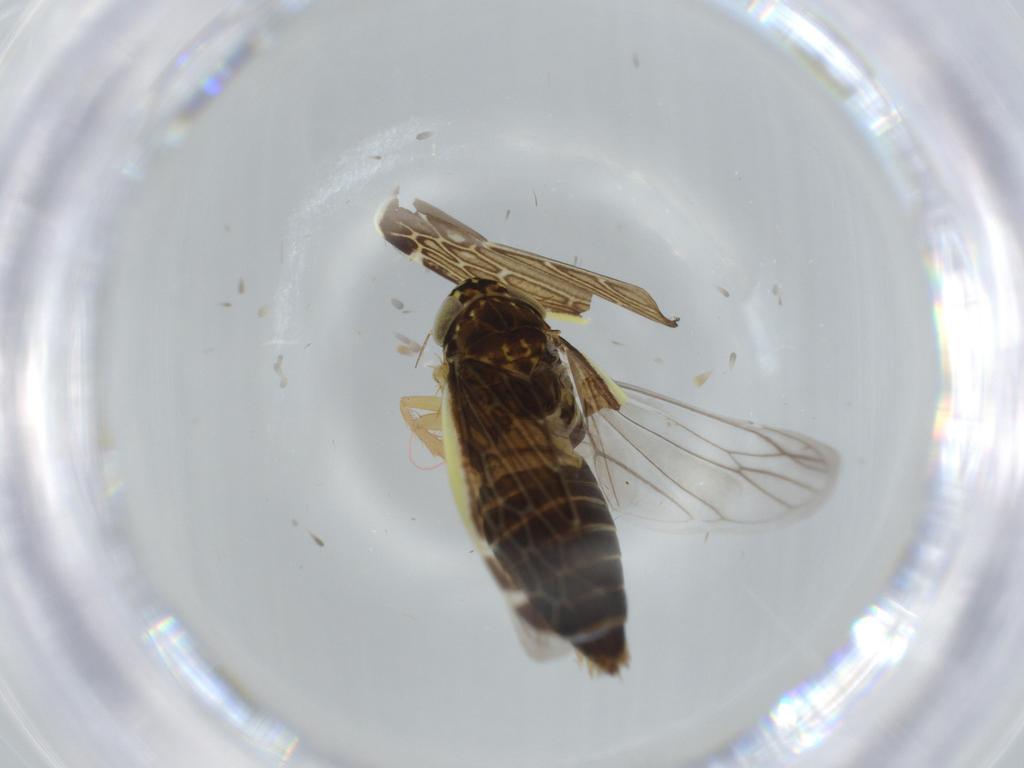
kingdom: Animalia
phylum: Arthropoda
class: Insecta
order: Hemiptera
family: Cicadellidae
